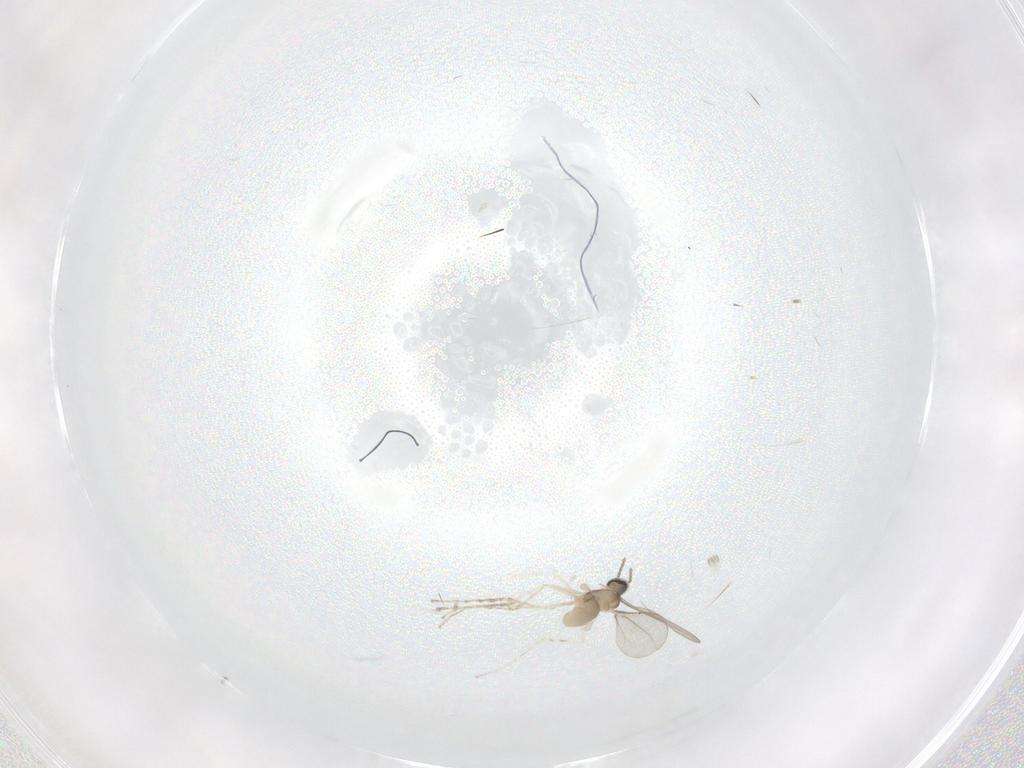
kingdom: Animalia
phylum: Arthropoda
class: Insecta
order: Diptera
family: Limoniidae
